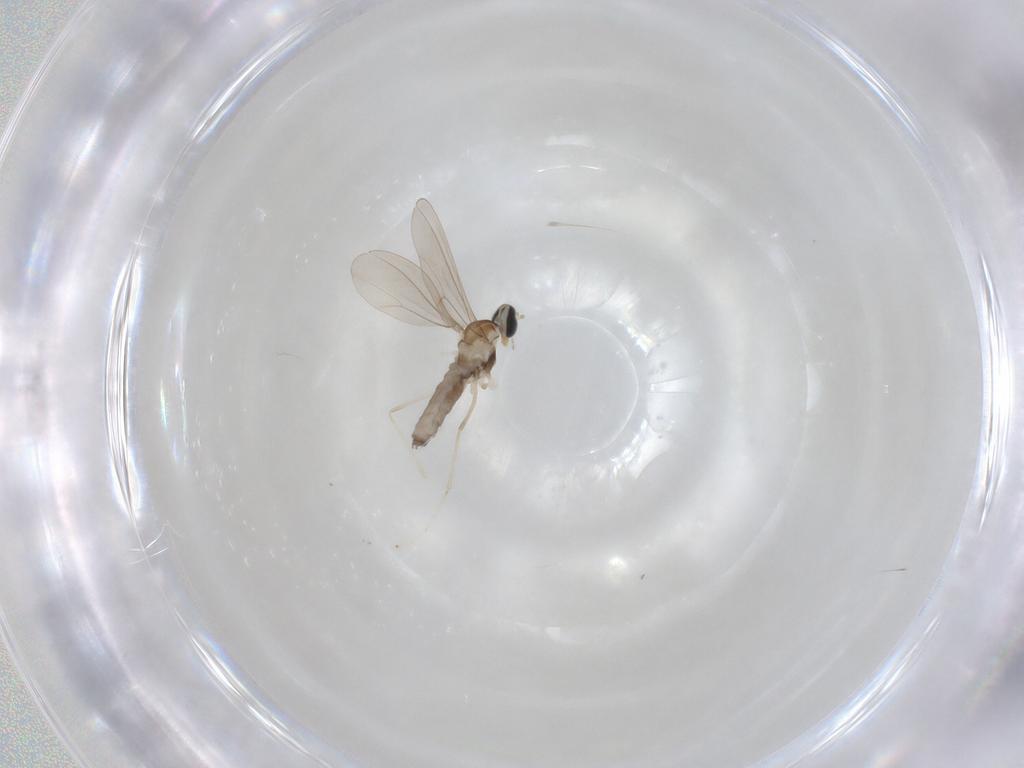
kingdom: Animalia
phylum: Arthropoda
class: Insecta
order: Diptera
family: Cecidomyiidae
